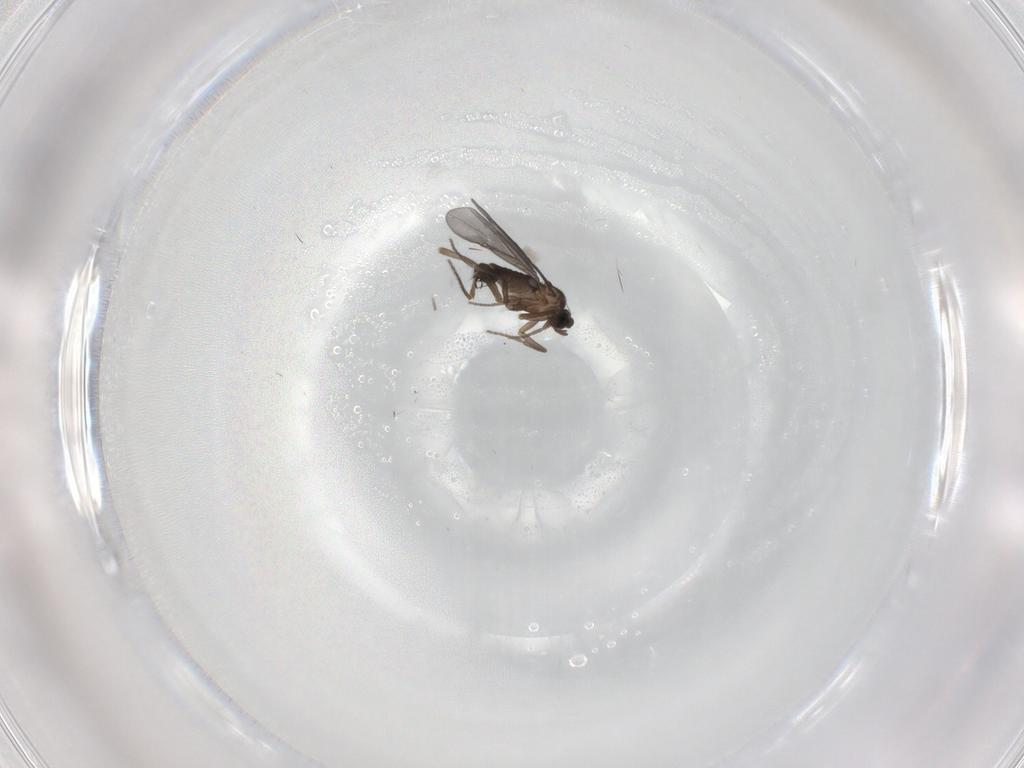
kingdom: Animalia
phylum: Arthropoda
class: Insecta
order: Diptera
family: Phoridae
